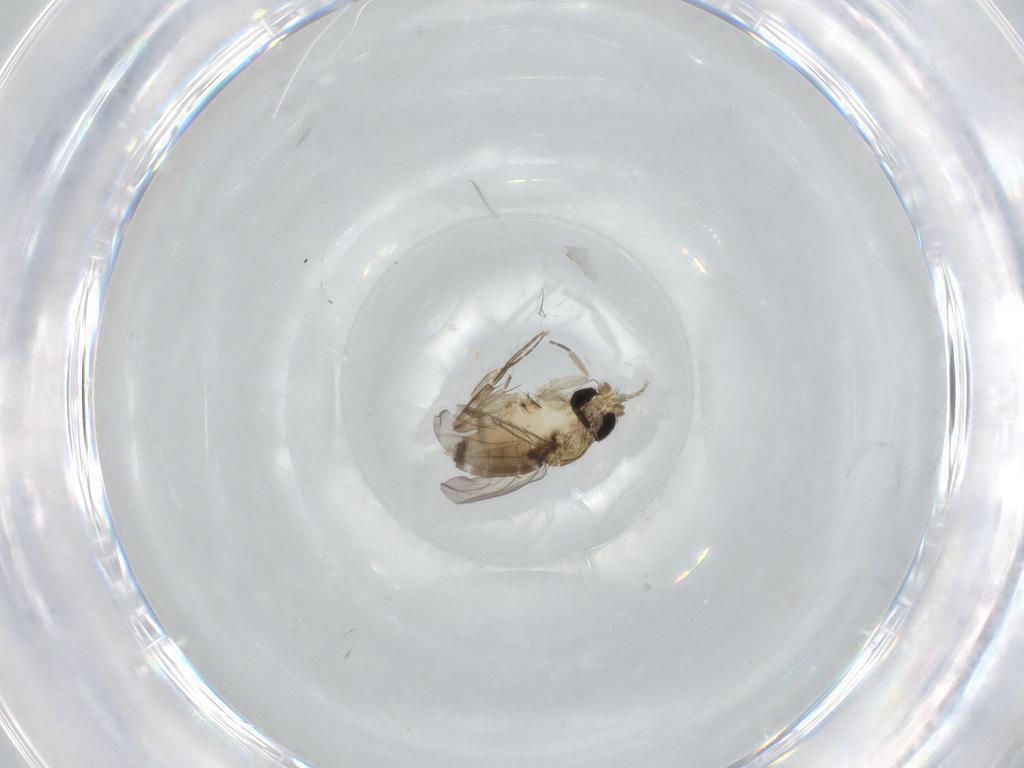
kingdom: Animalia
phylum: Arthropoda
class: Insecta
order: Diptera
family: Phoridae
